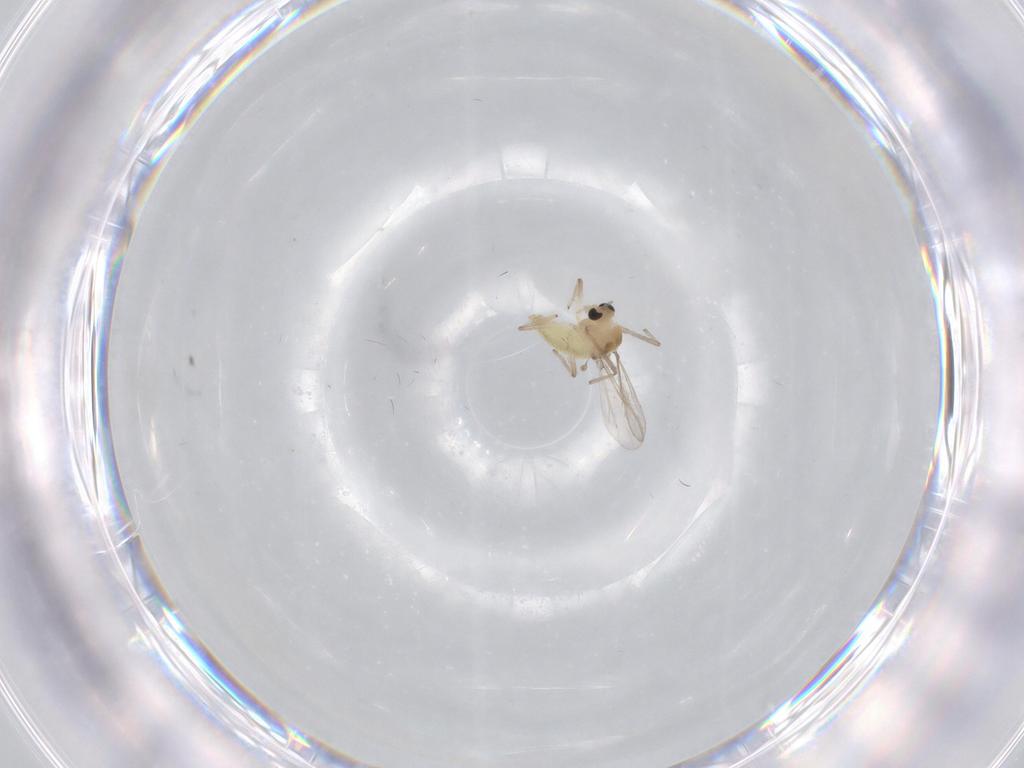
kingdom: Animalia
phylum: Arthropoda
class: Insecta
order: Diptera
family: Chironomidae
